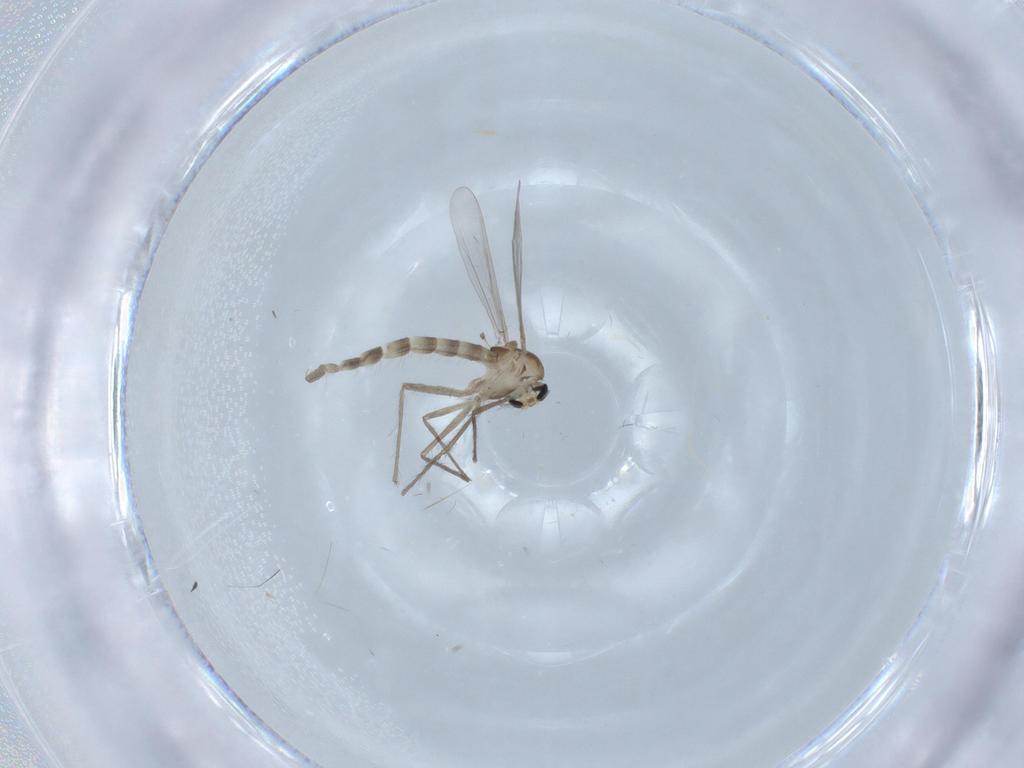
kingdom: Animalia
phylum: Arthropoda
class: Insecta
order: Diptera
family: Chironomidae
